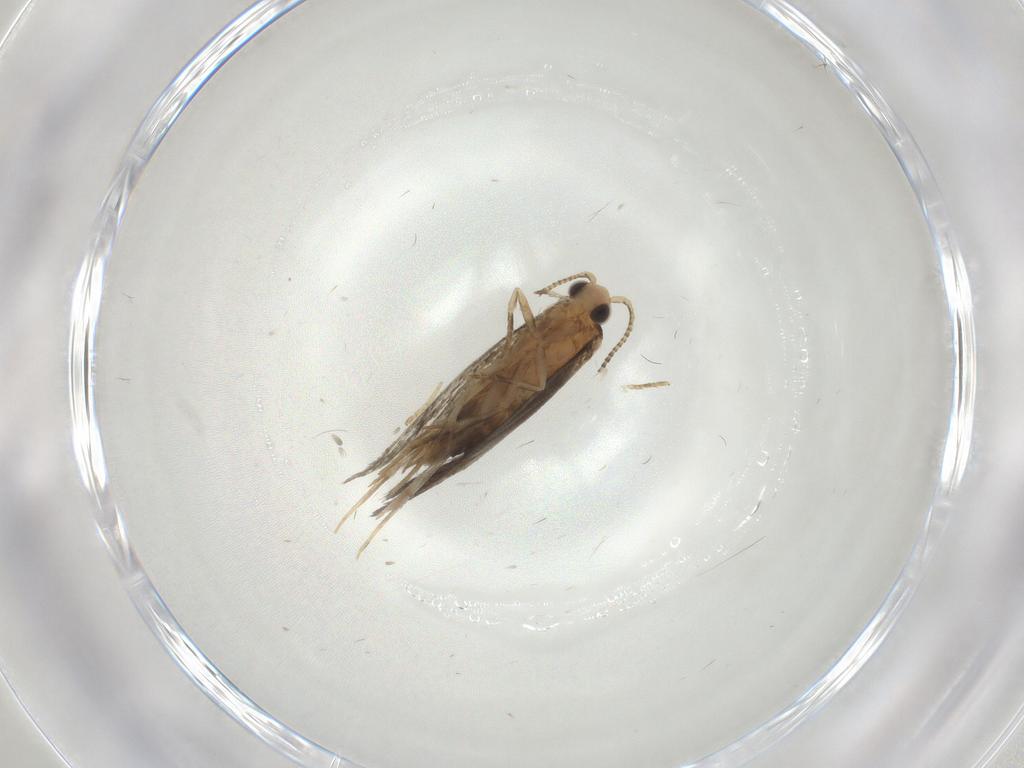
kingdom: Animalia
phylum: Arthropoda
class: Insecta
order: Lepidoptera
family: Tineidae
